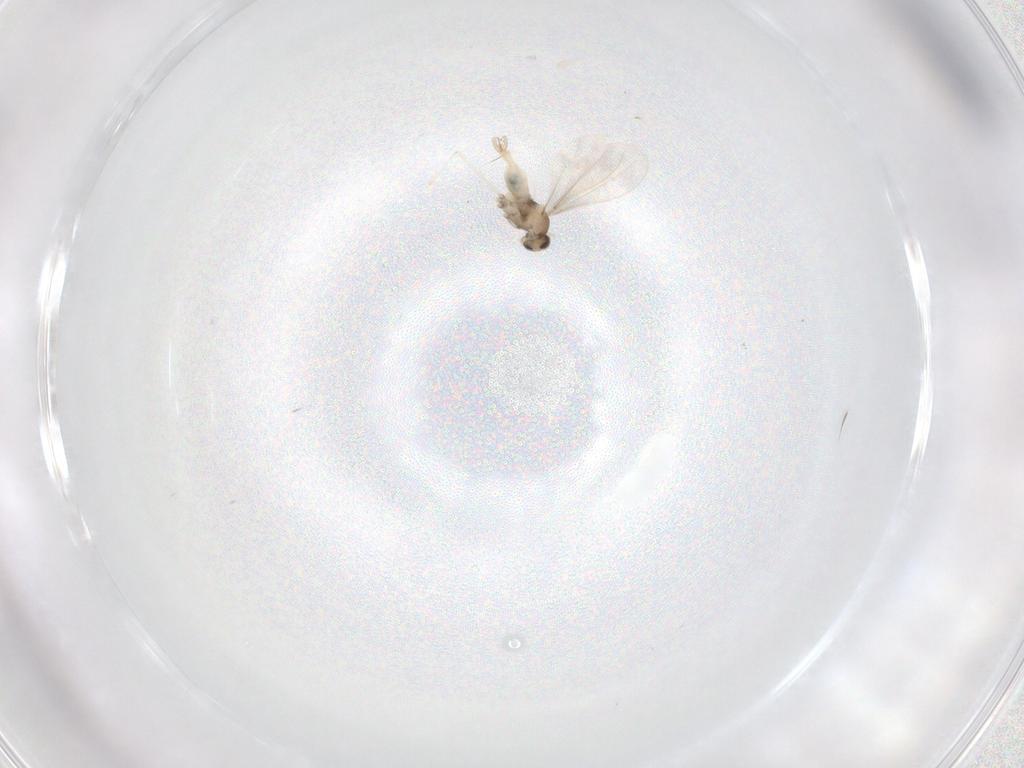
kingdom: Animalia
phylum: Arthropoda
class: Insecta
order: Diptera
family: Cecidomyiidae
